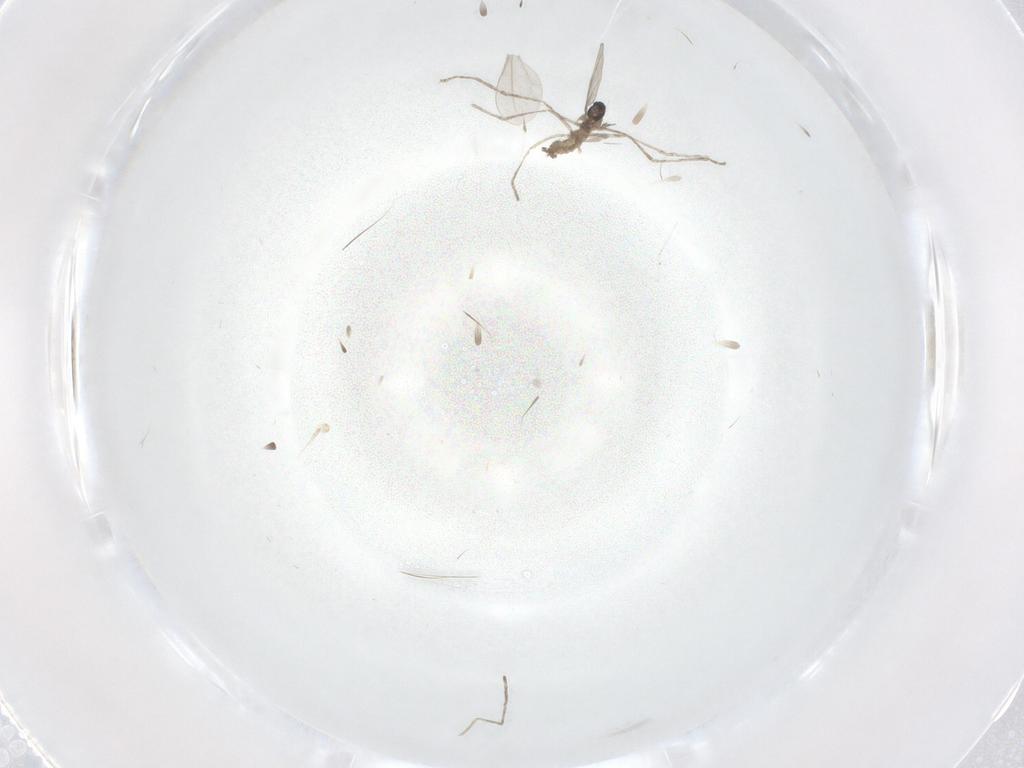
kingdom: Animalia
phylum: Arthropoda
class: Insecta
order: Diptera
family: Cecidomyiidae
